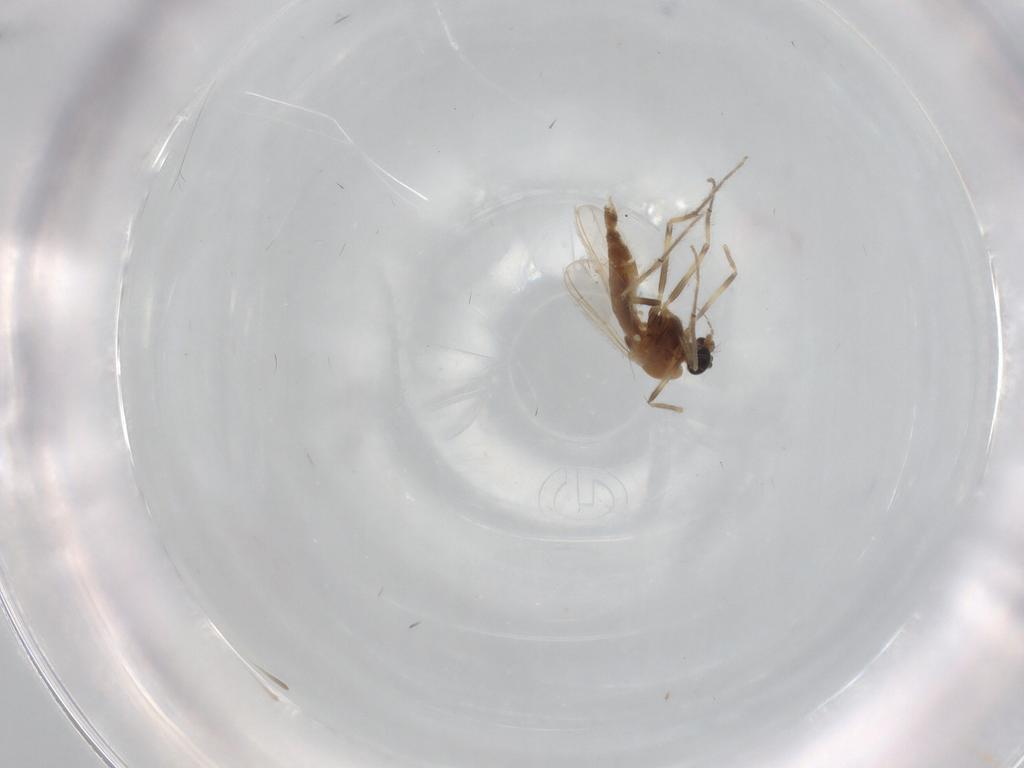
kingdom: Animalia
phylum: Arthropoda
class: Insecta
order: Diptera
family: Chironomidae
